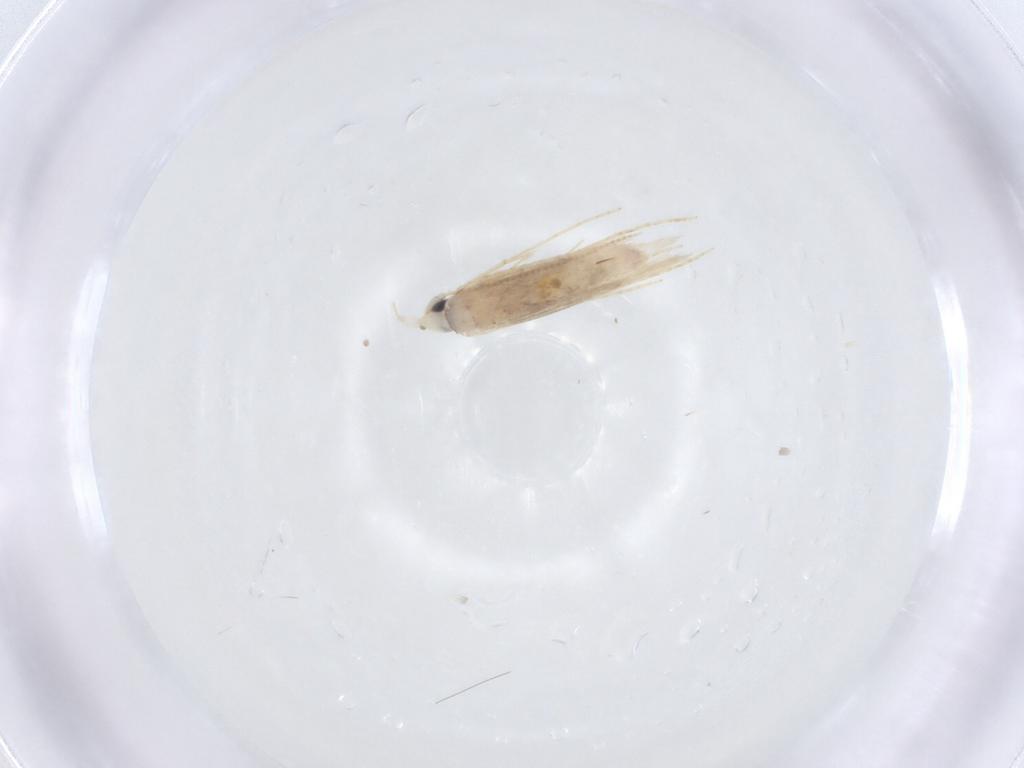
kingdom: Animalia
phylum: Arthropoda
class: Insecta
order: Lepidoptera
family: Tineidae
